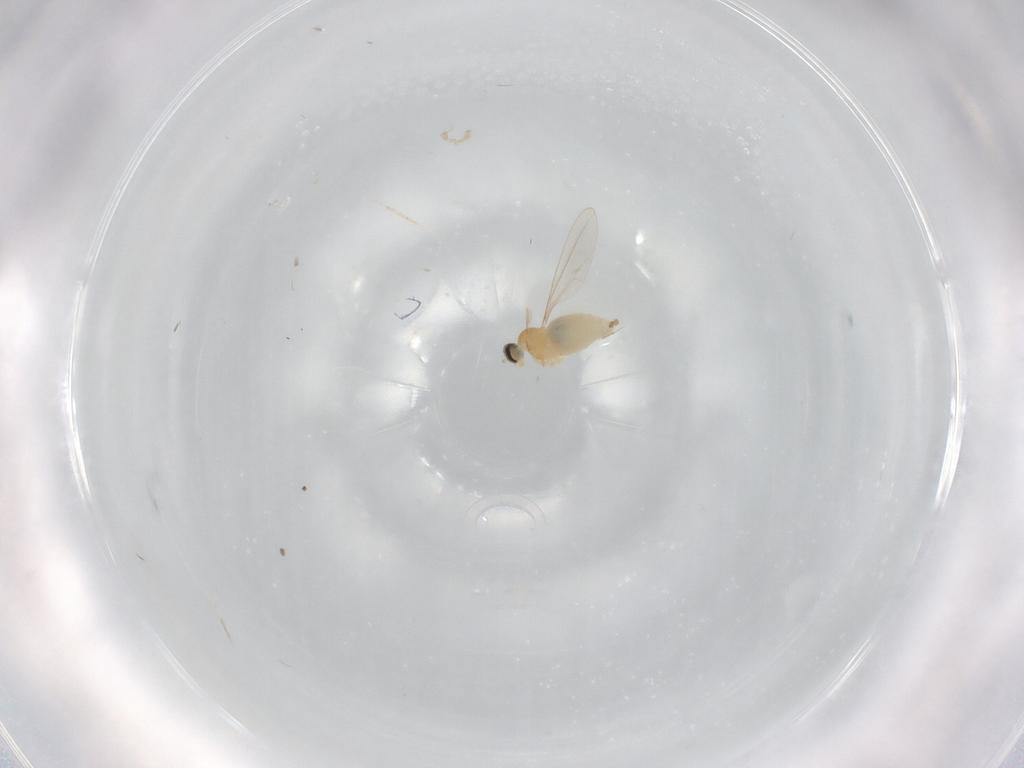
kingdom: Animalia
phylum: Arthropoda
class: Insecta
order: Diptera
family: Cecidomyiidae
